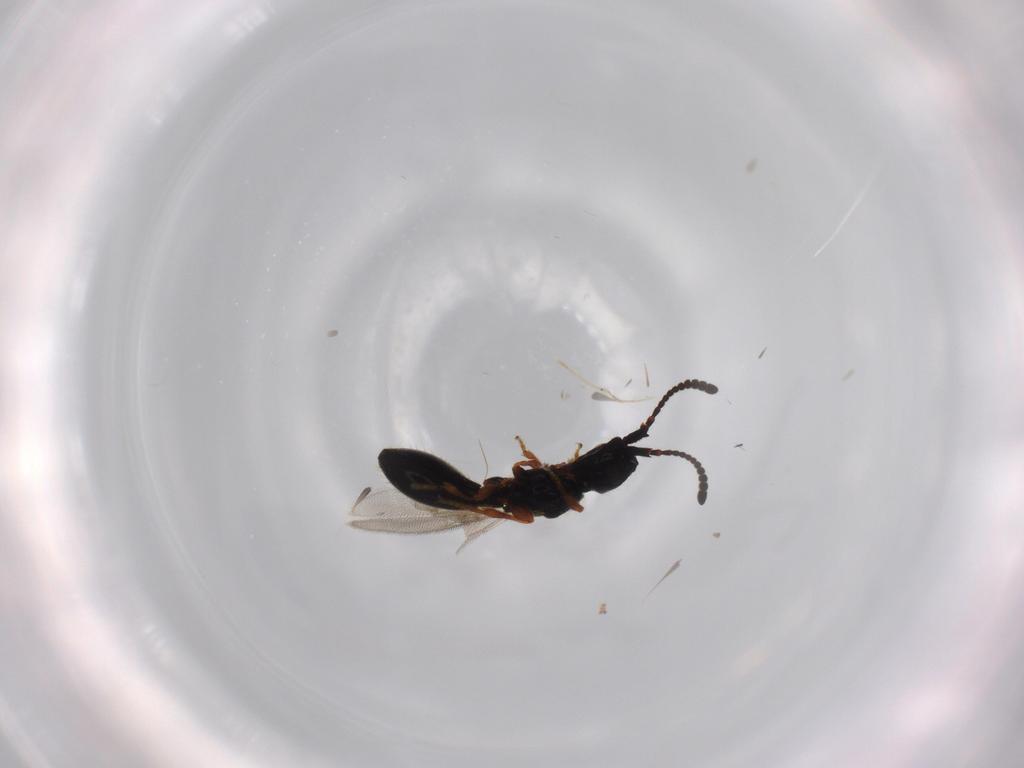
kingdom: Animalia
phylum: Arthropoda
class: Insecta
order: Hymenoptera
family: Diapriidae
